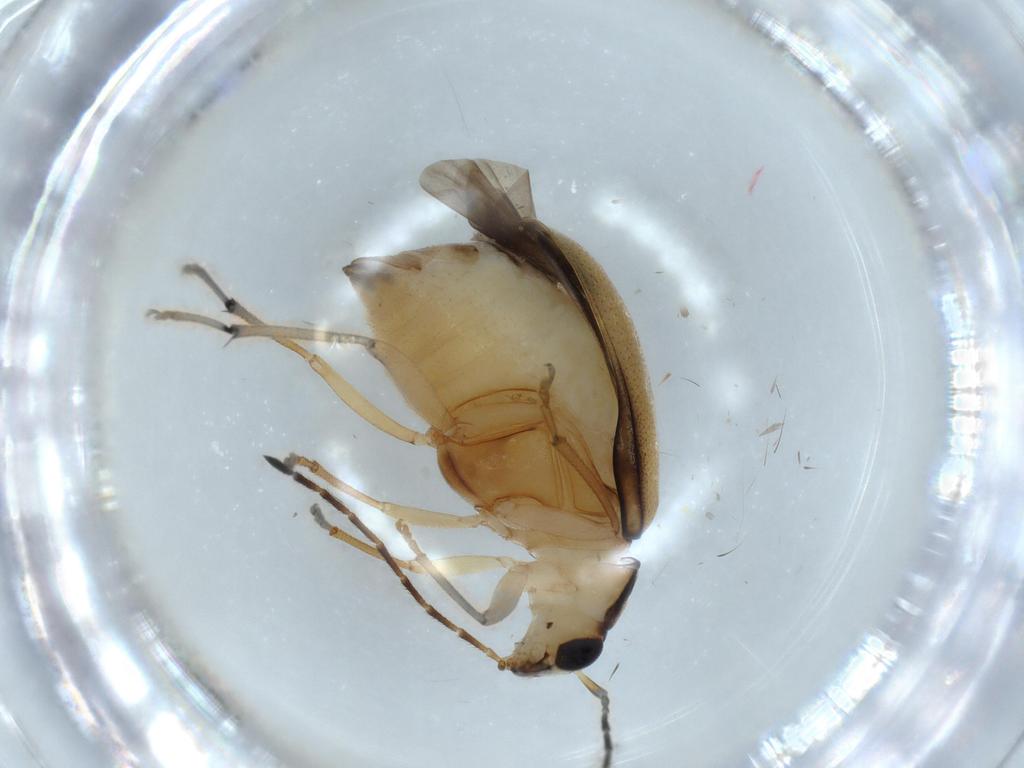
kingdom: Animalia
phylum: Arthropoda
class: Insecta
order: Coleoptera
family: Chrysomelidae
